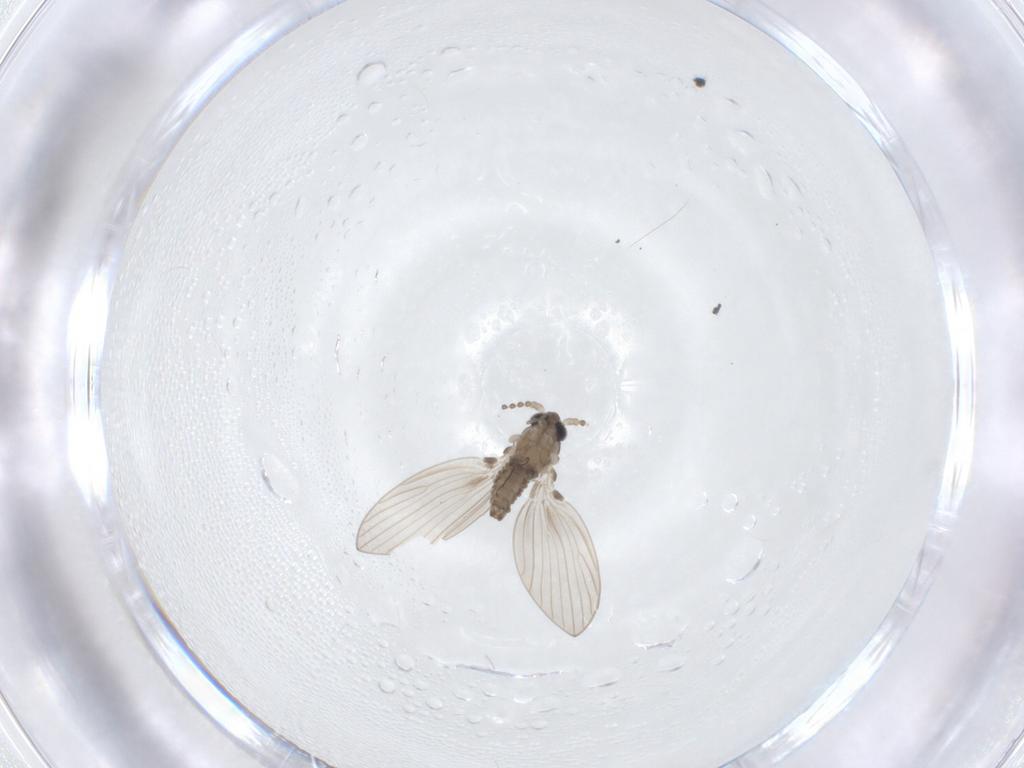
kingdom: Animalia
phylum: Arthropoda
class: Insecta
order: Diptera
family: Psychodidae
